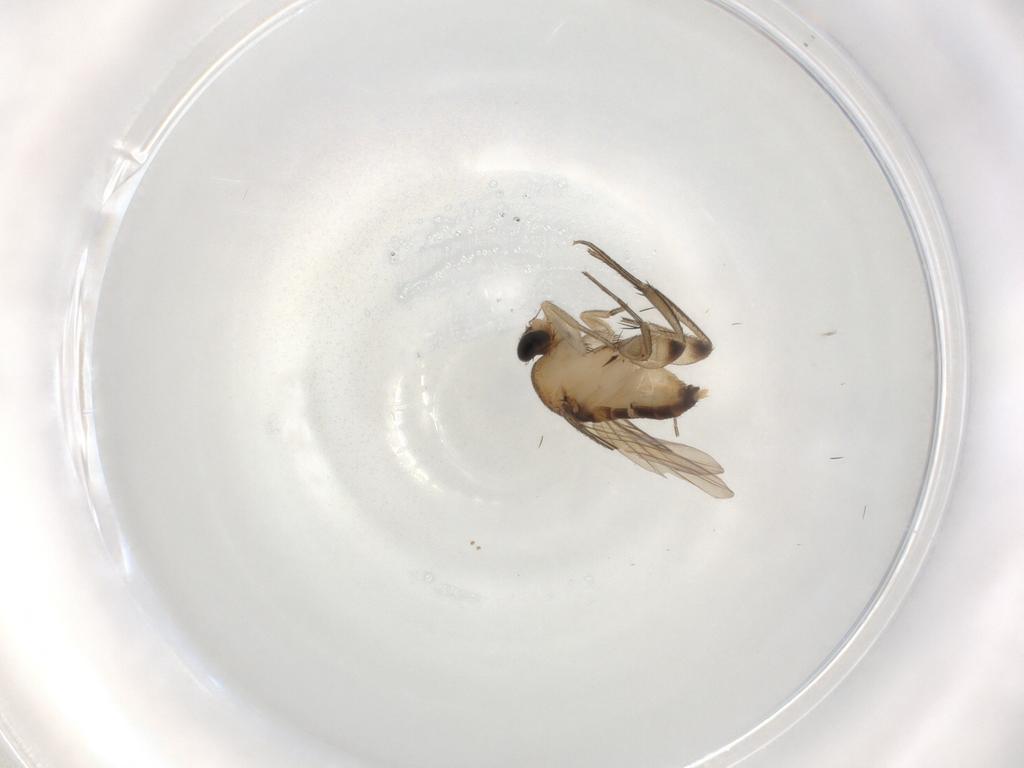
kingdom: Animalia
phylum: Arthropoda
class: Insecta
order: Diptera
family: Phoridae
